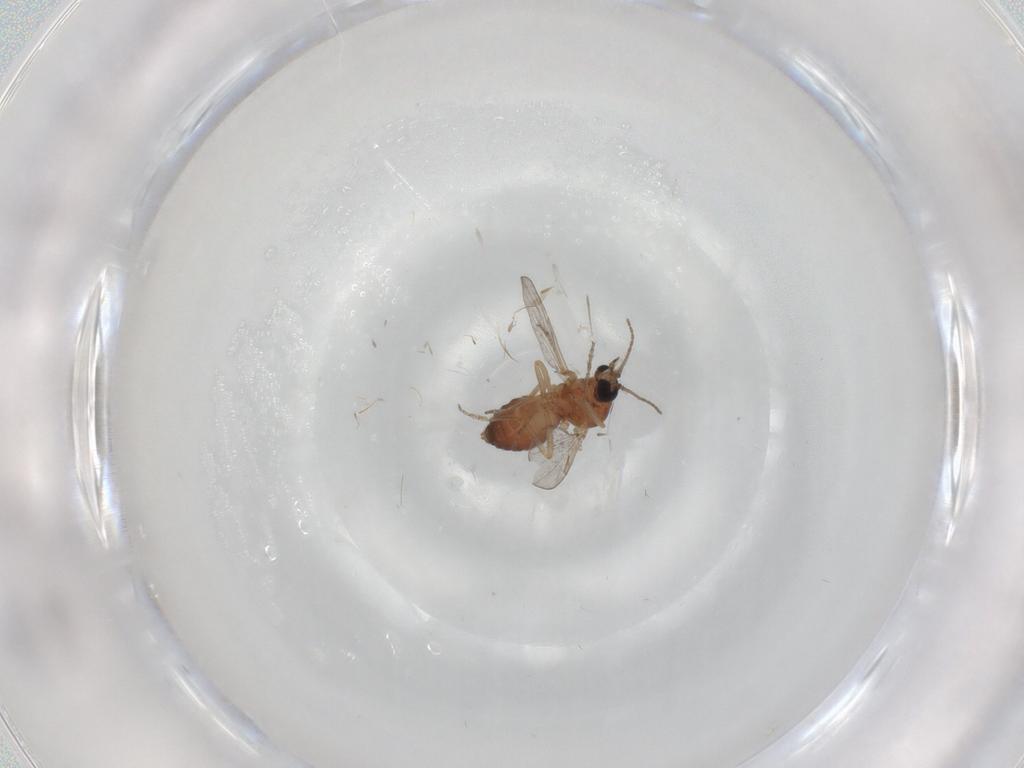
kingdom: Animalia
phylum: Arthropoda
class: Insecta
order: Diptera
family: Ceratopogonidae
